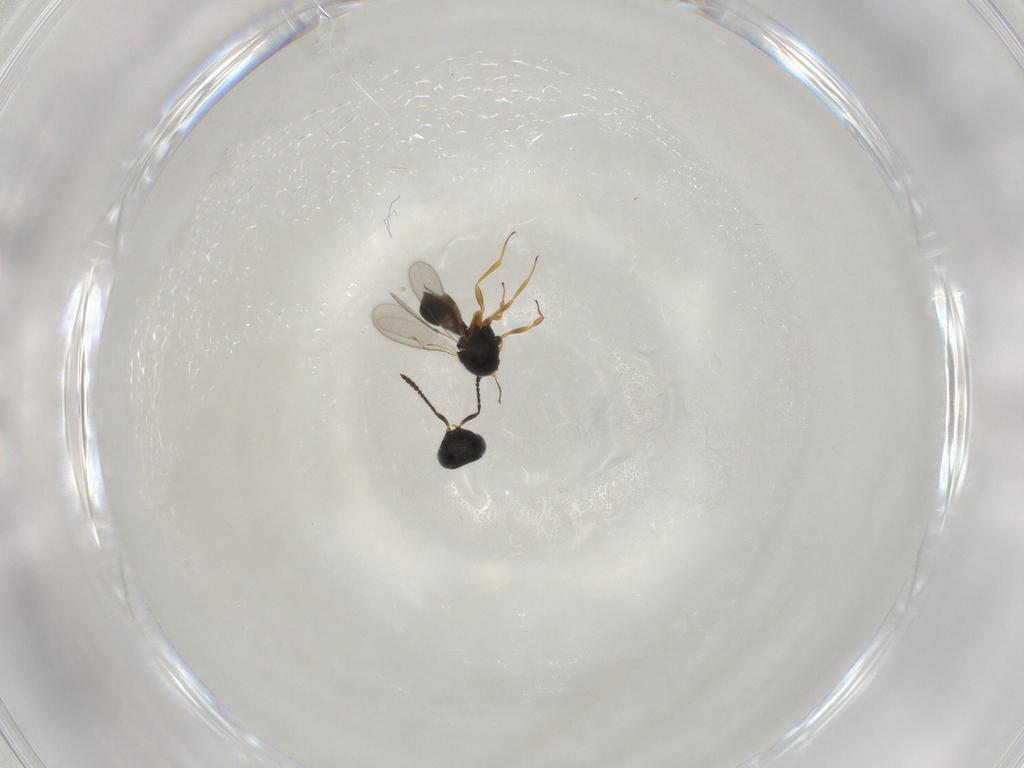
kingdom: Animalia
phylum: Arthropoda
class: Insecta
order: Hymenoptera
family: Scelionidae
